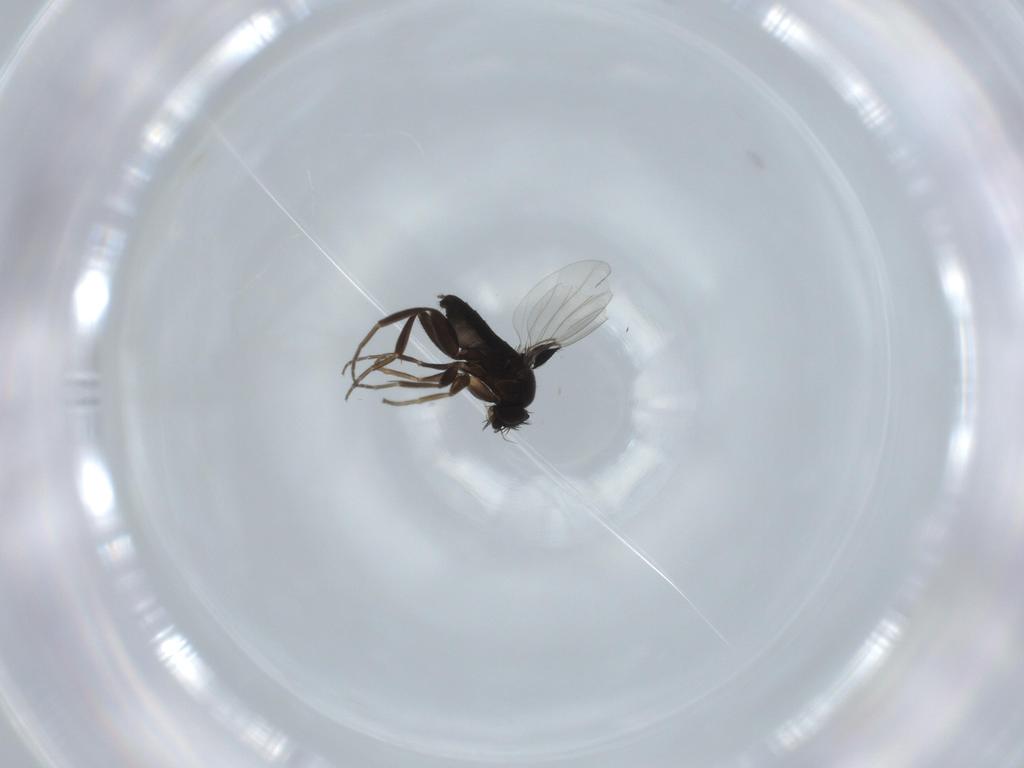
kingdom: Animalia
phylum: Arthropoda
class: Insecta
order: Diptera
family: Phoridae
